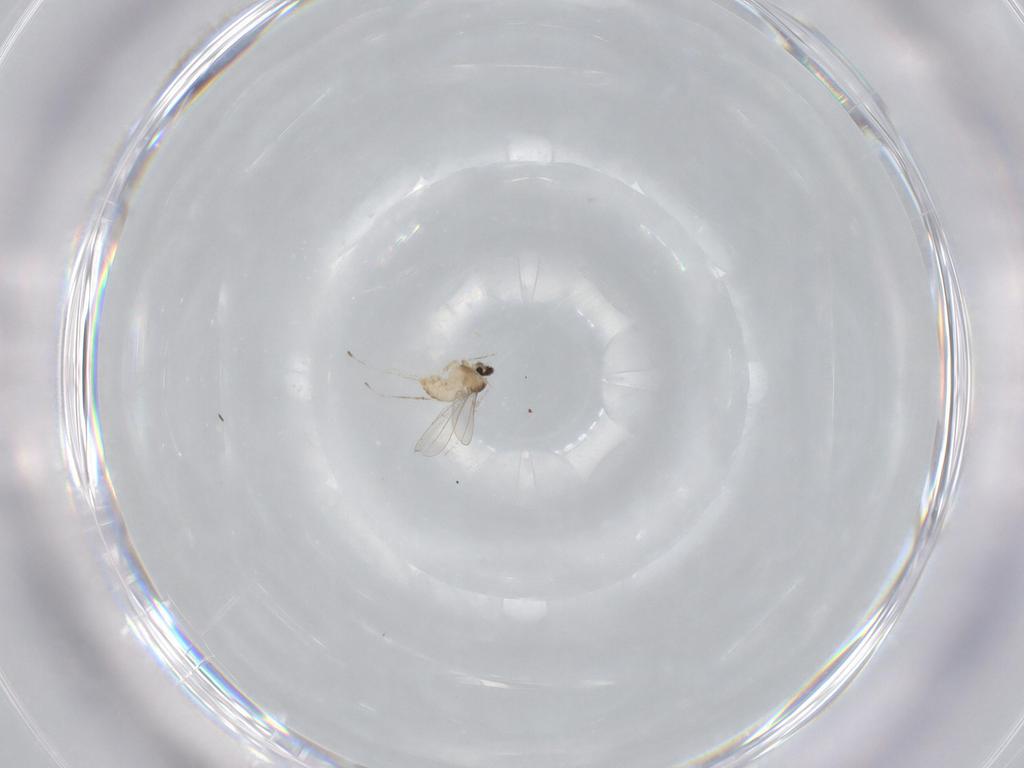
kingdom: Animalia
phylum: Arthropoda
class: Insecta
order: Diptera
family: Cecidomyiidae
